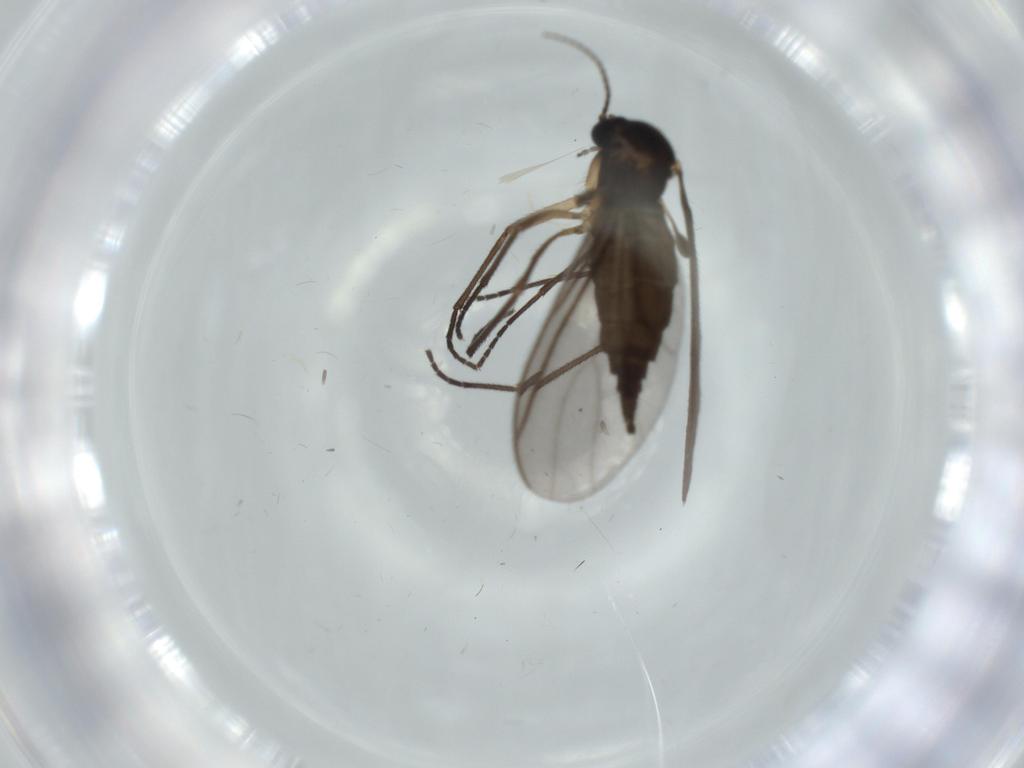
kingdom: Animalia
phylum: Arthropoda
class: Insecta
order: Diptera
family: Sciaridae
